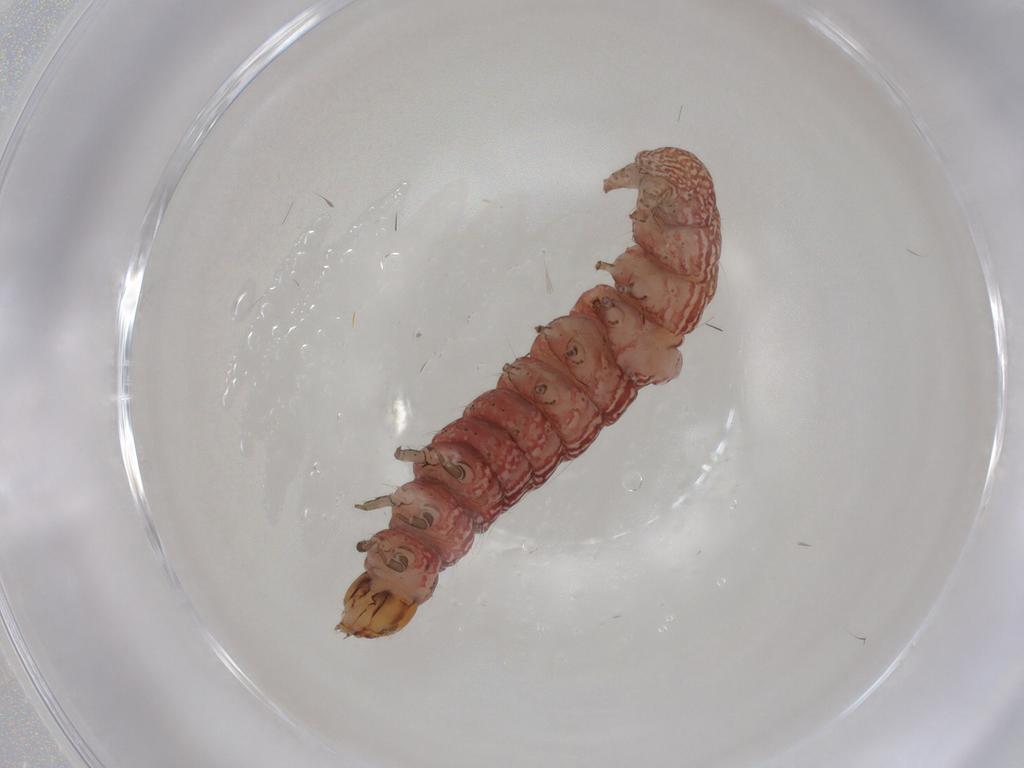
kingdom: Animalia
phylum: Arthropoda
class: Insecta
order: Lepidoptera
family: Gelechiidae
